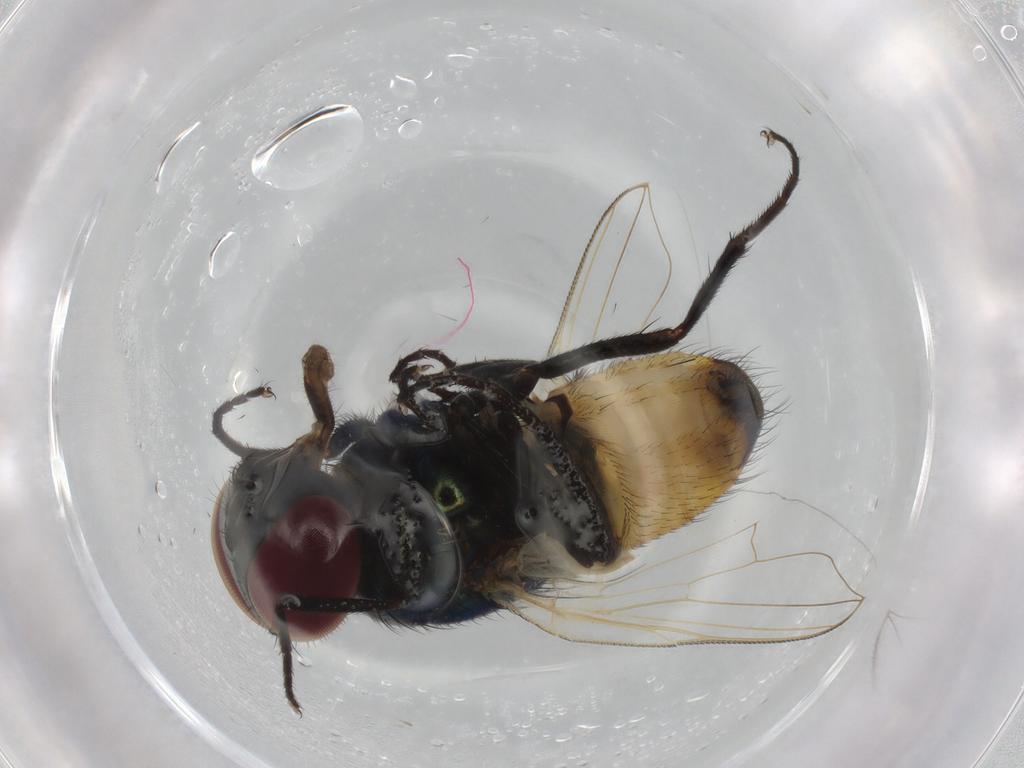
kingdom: Animalia
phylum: Arthropoda
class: Insecta
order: Diptera
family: Muscidae
